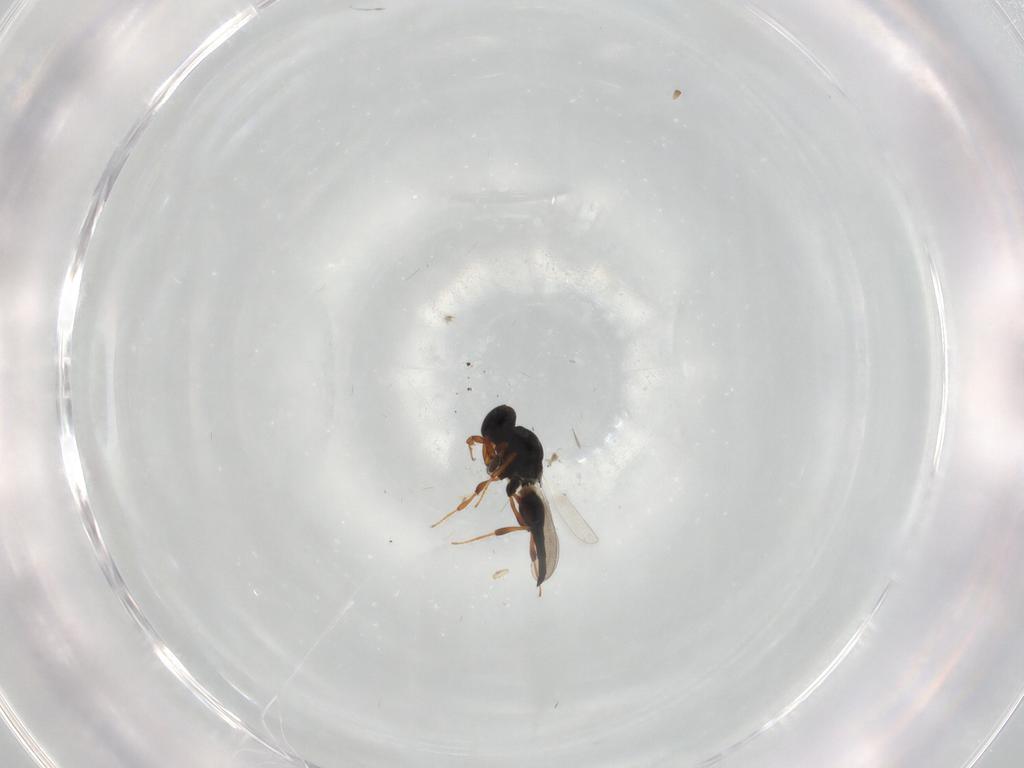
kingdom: Animalia
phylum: Arthropoda
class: Insecta
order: Hymenoptera
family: Platygastridae
